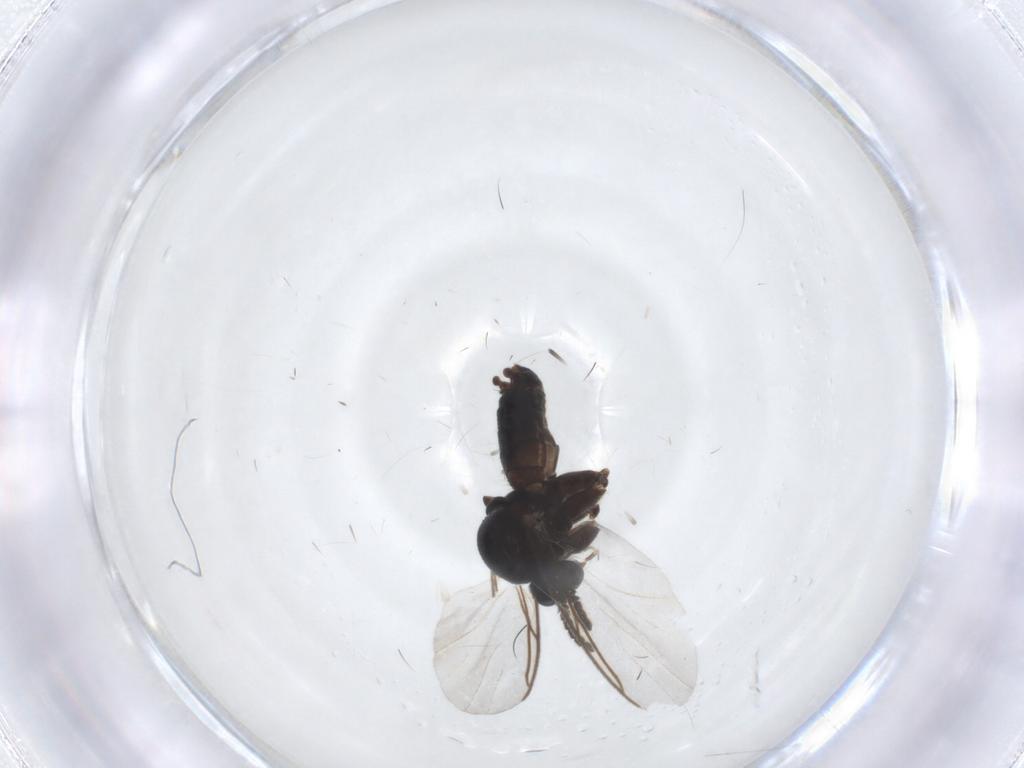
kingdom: Animalia
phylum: Arthropoda
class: Insecta
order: Diptera
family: Mycetophilidae
